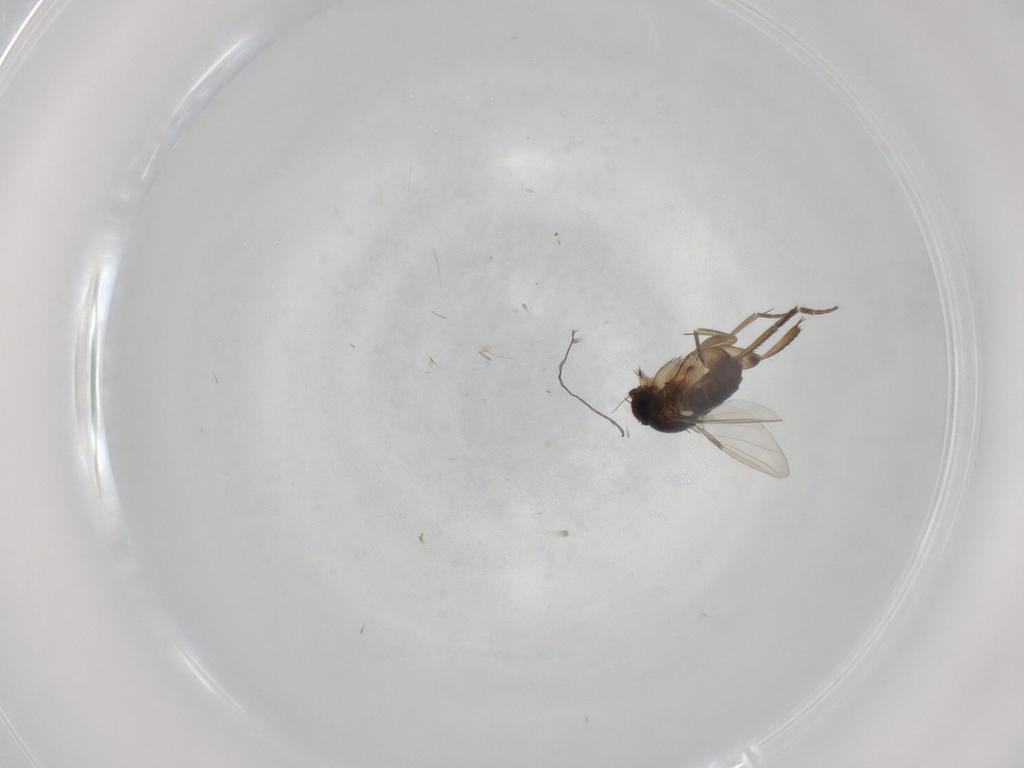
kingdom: Animalia
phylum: Arthropoda
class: Insecta
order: Diptera
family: Phoridae
